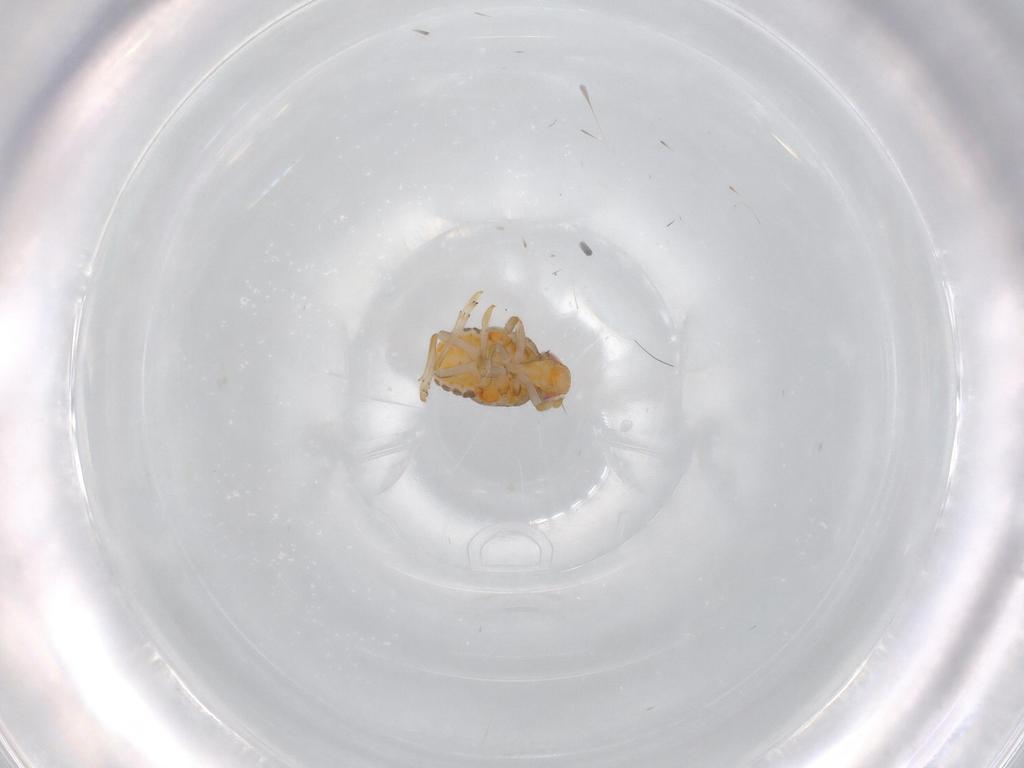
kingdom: Animalia
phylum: Arthropoda
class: Insecta
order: Hemiptera
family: Issidae
